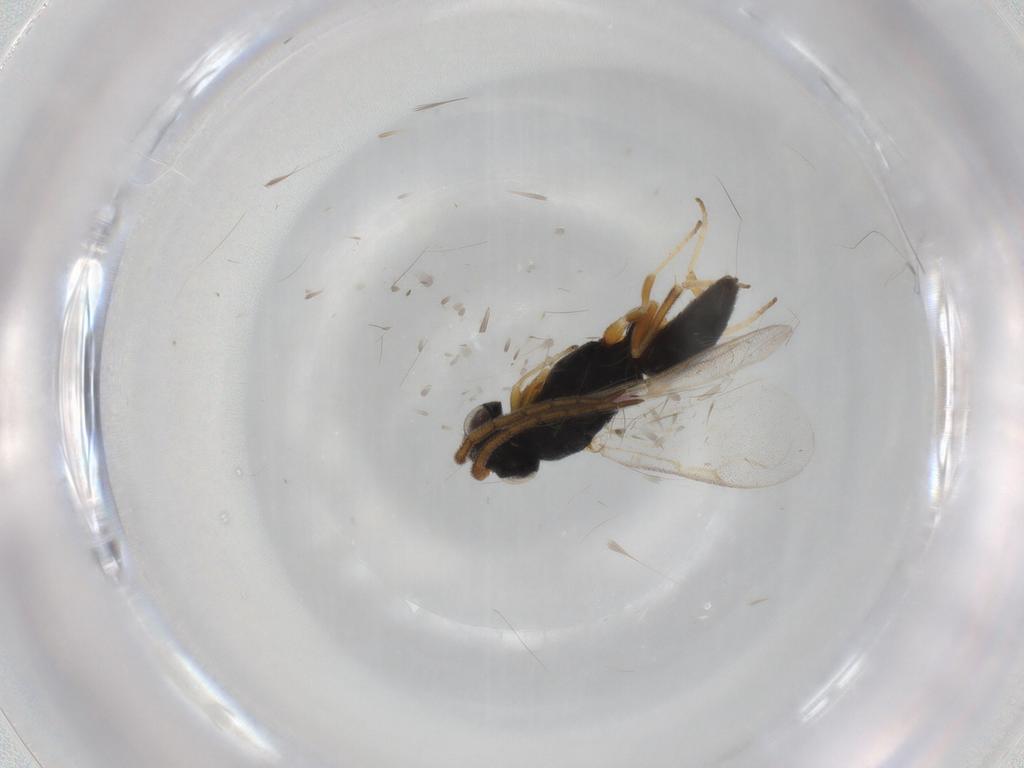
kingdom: Animalia
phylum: Arthropoda
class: Insecta
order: Hymenoptera
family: Dryinidae
